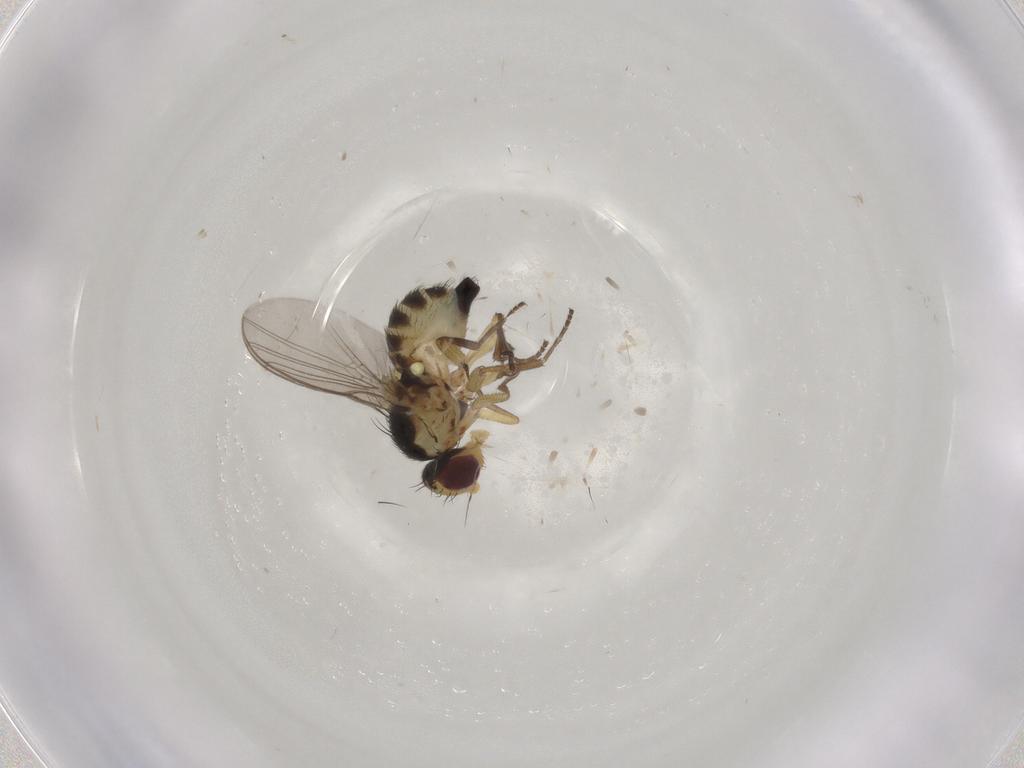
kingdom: Animalia
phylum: Arthropoda
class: Insecta
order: Diptera
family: Agromyzidae
